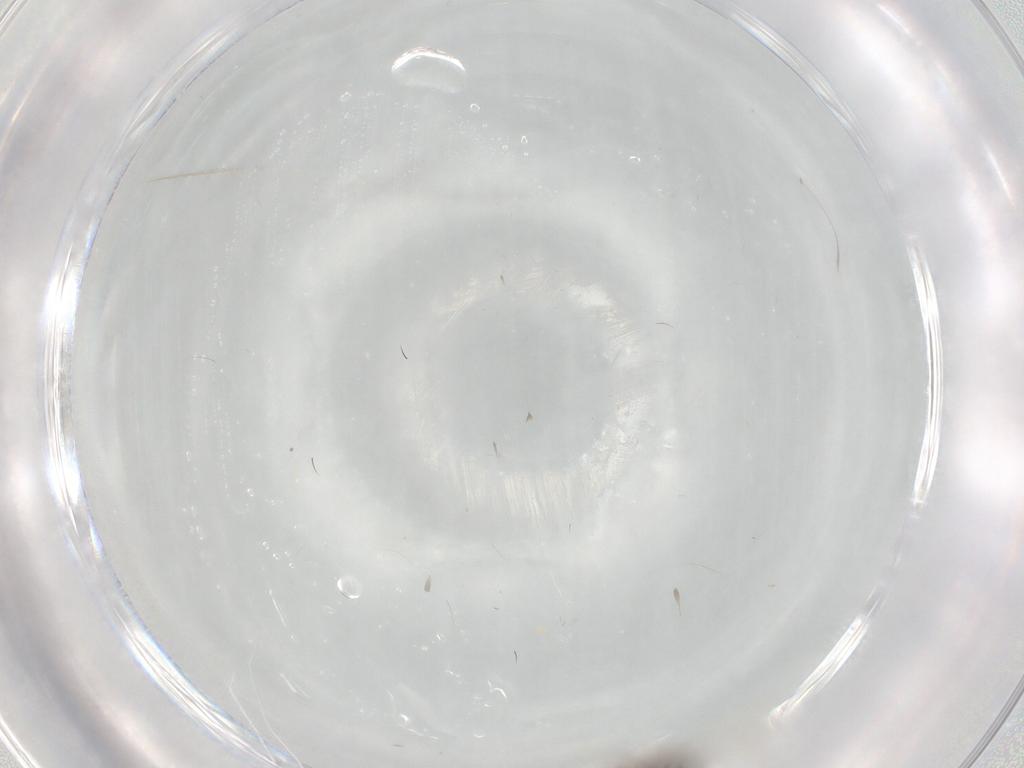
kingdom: Animalia
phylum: Arthropoda
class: Insecta
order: Diptera
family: Chironomidae
